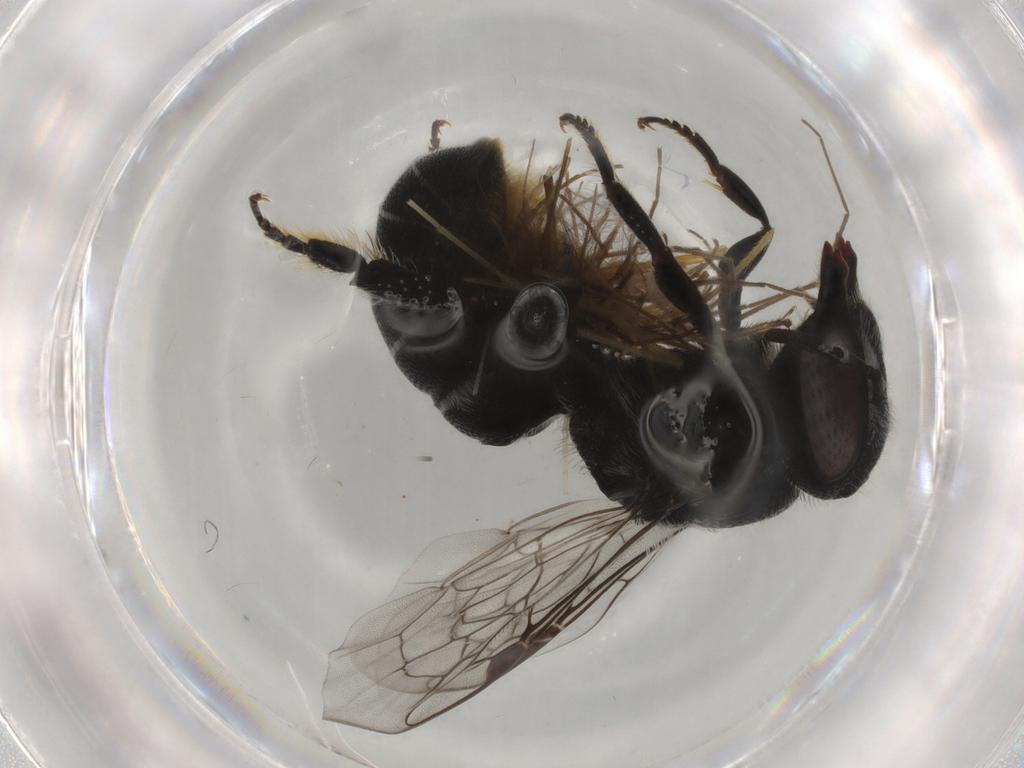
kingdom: Animalia
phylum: Arthropoda
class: Insecta
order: Hymenoptera
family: Megachilidae
